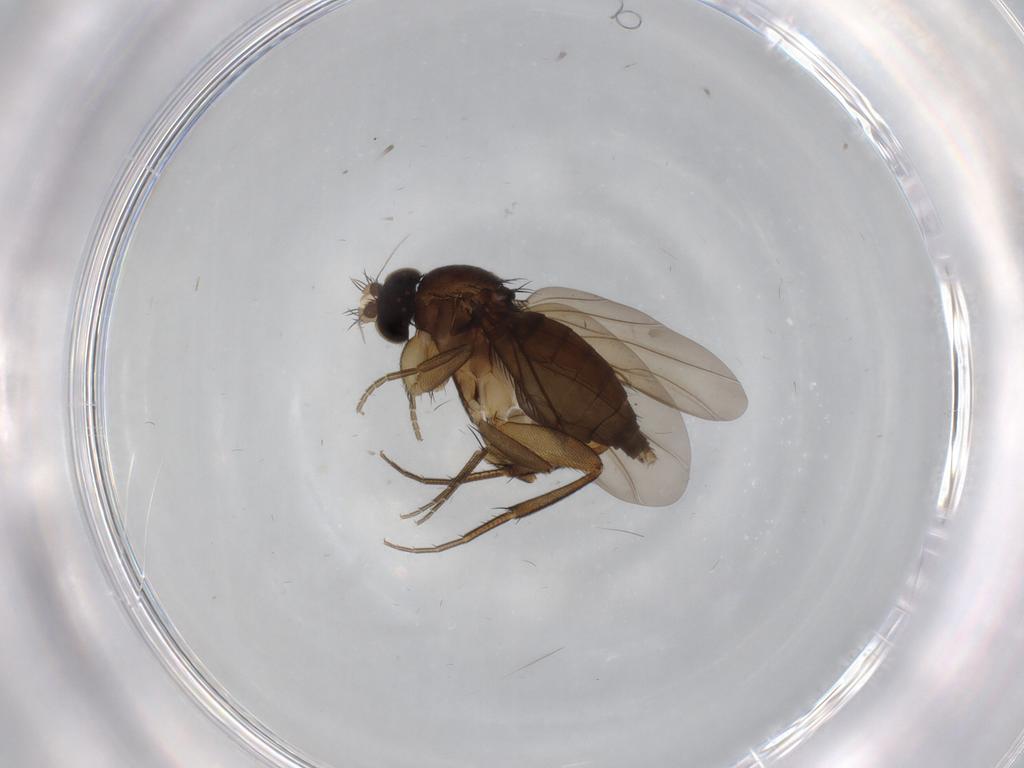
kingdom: Animalia
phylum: Arthropoda
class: Insecta
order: Diptera
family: Phoridae
